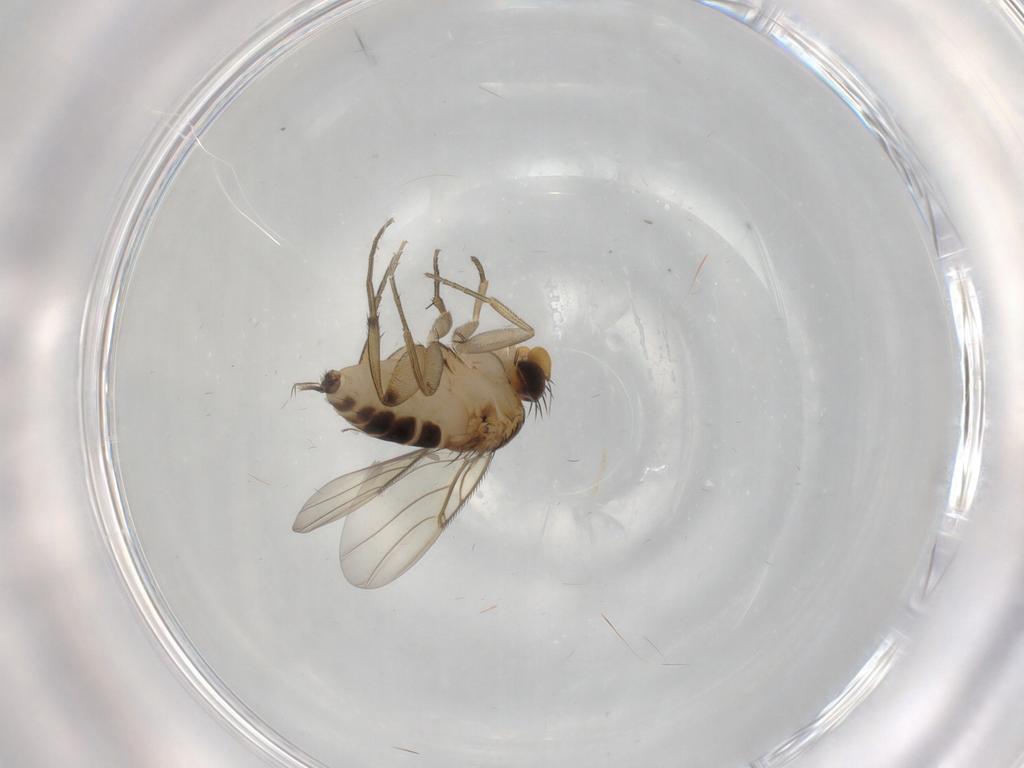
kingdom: Animalia
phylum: Arthropoda
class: Insecta
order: Diptera
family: Phoridae
